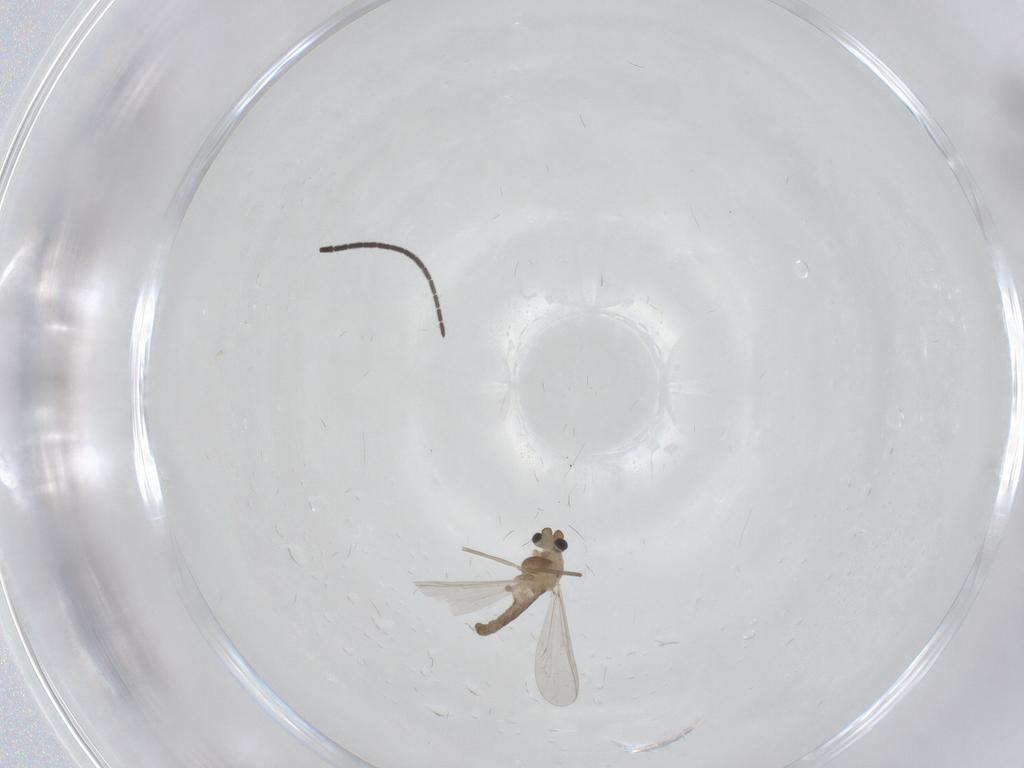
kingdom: Animalia
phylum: Arthropoda
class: Insecta
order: Diptera
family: Sciaridae
